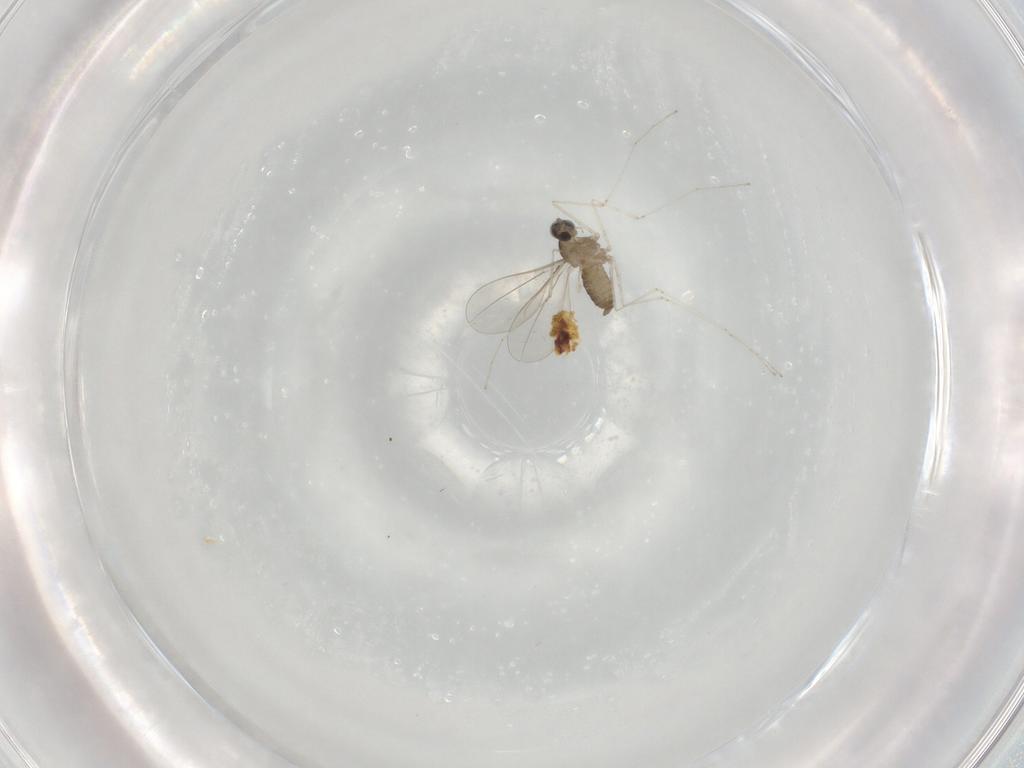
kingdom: Animalia
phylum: Arthropoda
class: Insecta
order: Diptera
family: Cecidomyiidae
